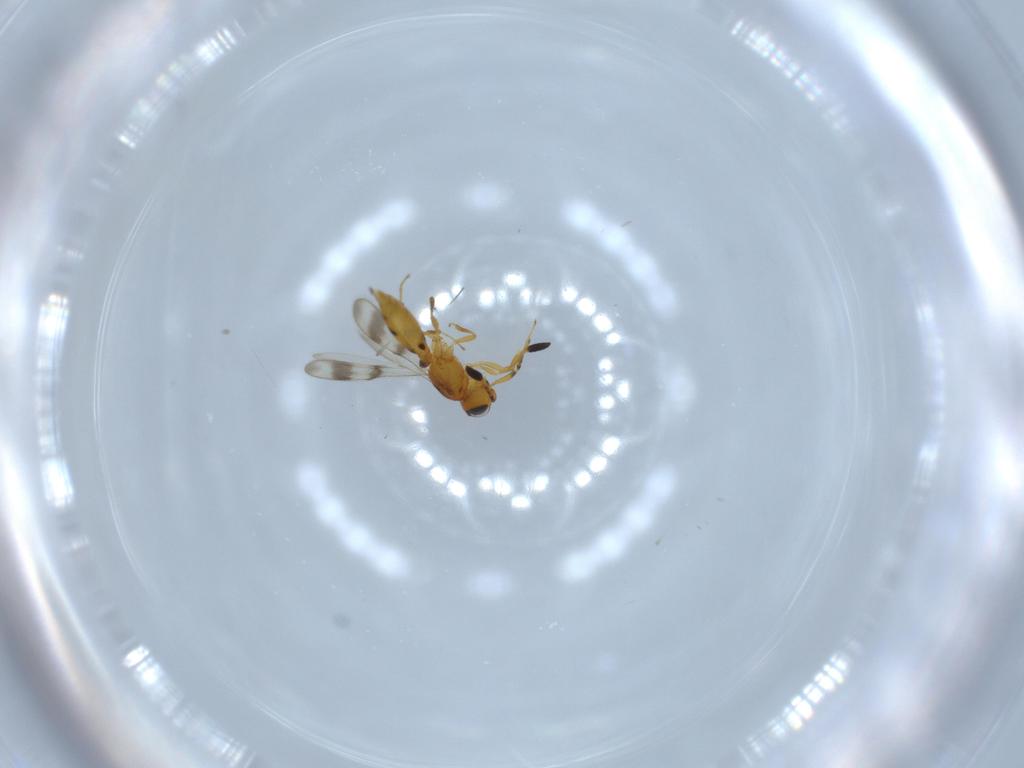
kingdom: Animalia
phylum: Arthropoda
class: Insecta
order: Hymenoptera
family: Scelionidae
